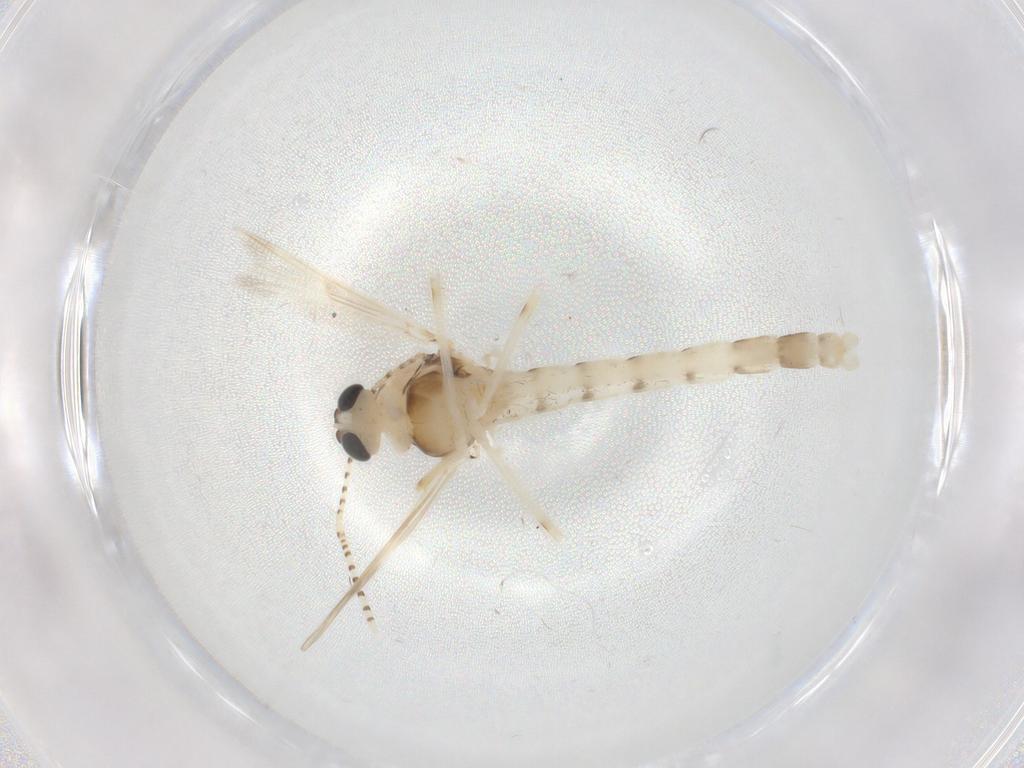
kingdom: Animalia
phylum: Arthropoda
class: Insecta
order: Diptera
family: Chironomidae
